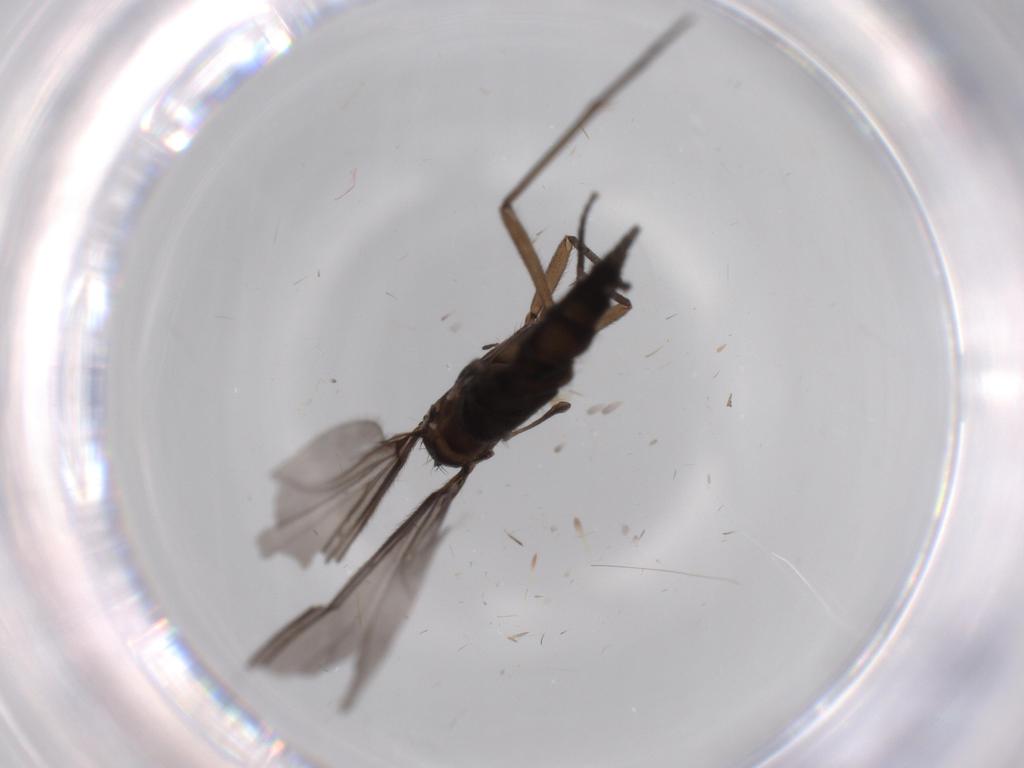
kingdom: Animalia
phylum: Arthropoda
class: Insecta
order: Diptera
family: Sciaridae
